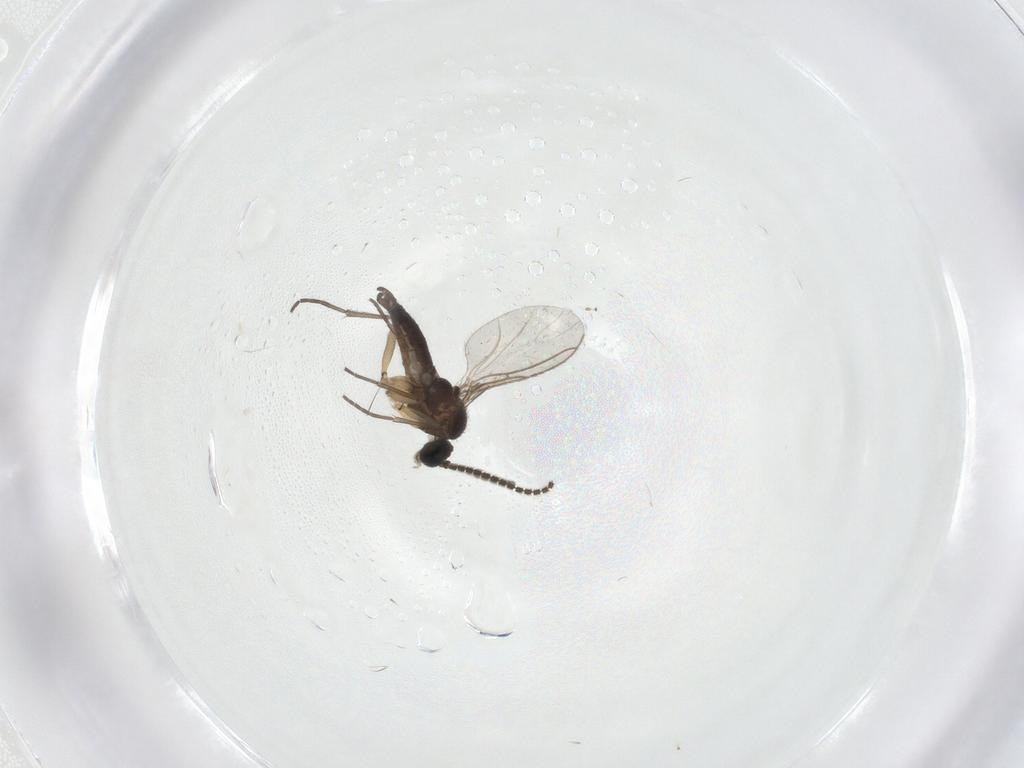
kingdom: Animalia
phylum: Arthropoda
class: Insecta
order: Diptera
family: Sciaridae
